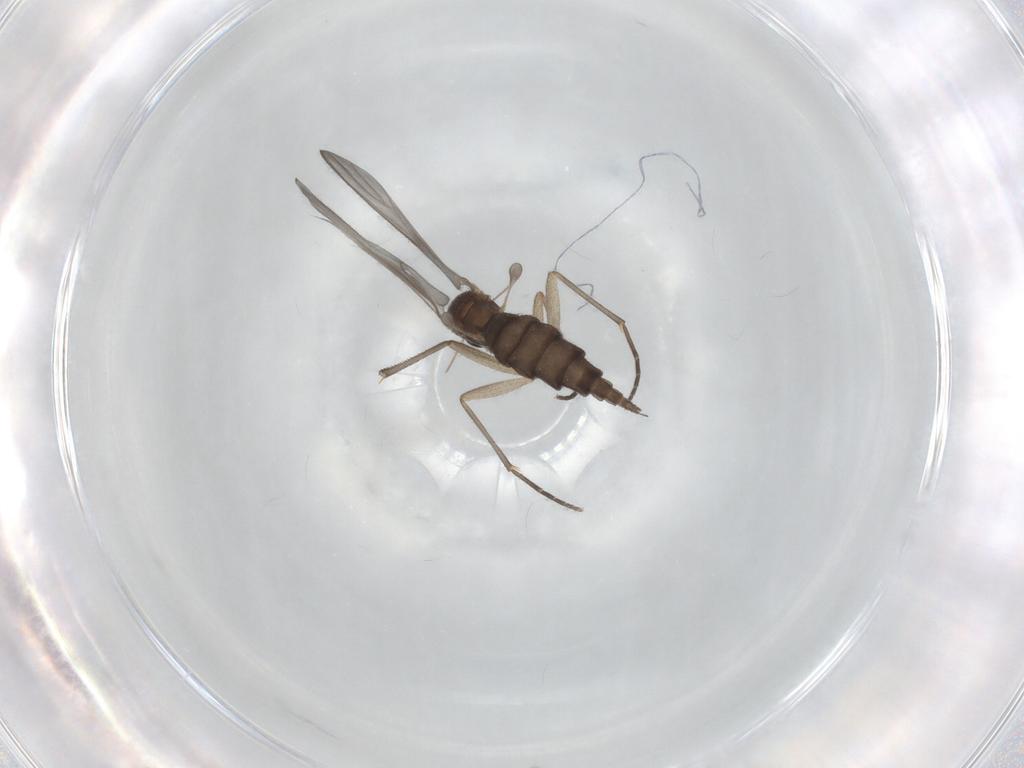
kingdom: Animalia
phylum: Arthropoda
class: Insecta
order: Diptera
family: Sciaridae
